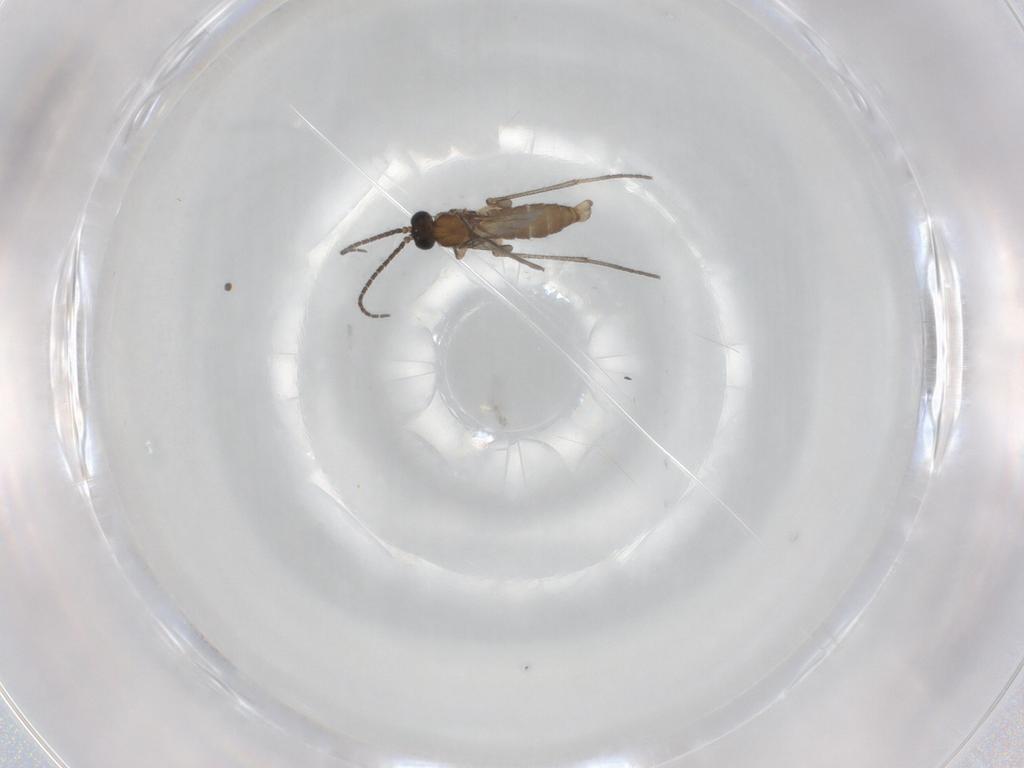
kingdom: Animalia
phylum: Arthropoda
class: Insecta
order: Diptera
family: Sciaridae
